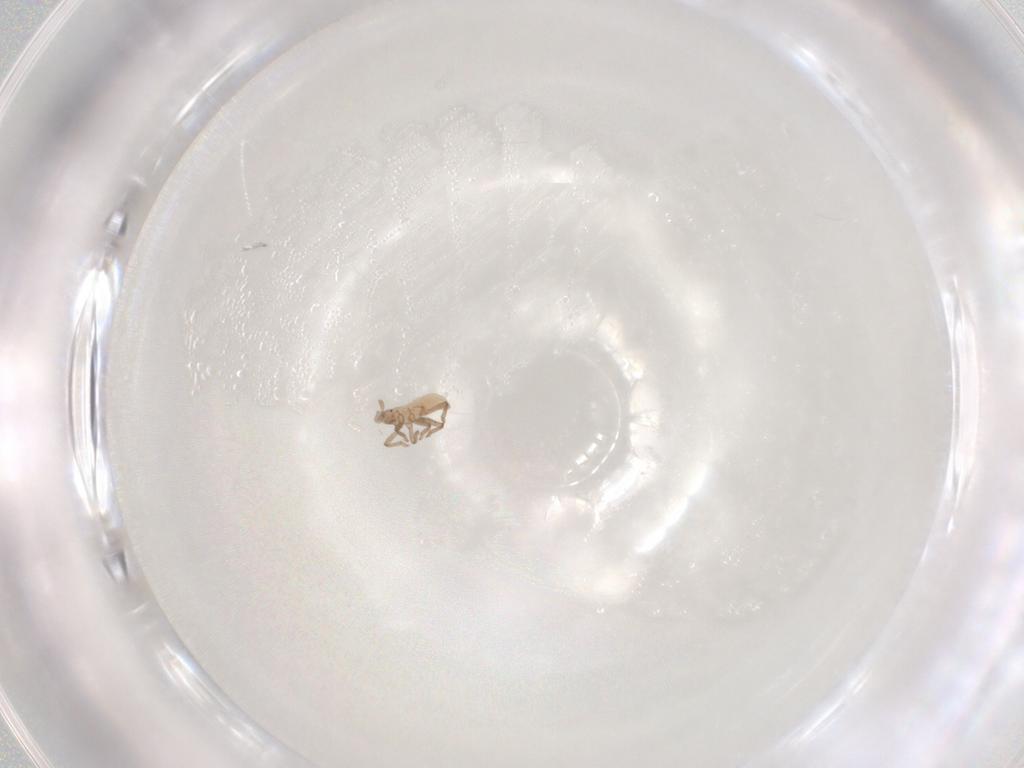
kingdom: Animalia
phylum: Arthropoda
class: Insecta
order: Hemiptera
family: Aphididae
